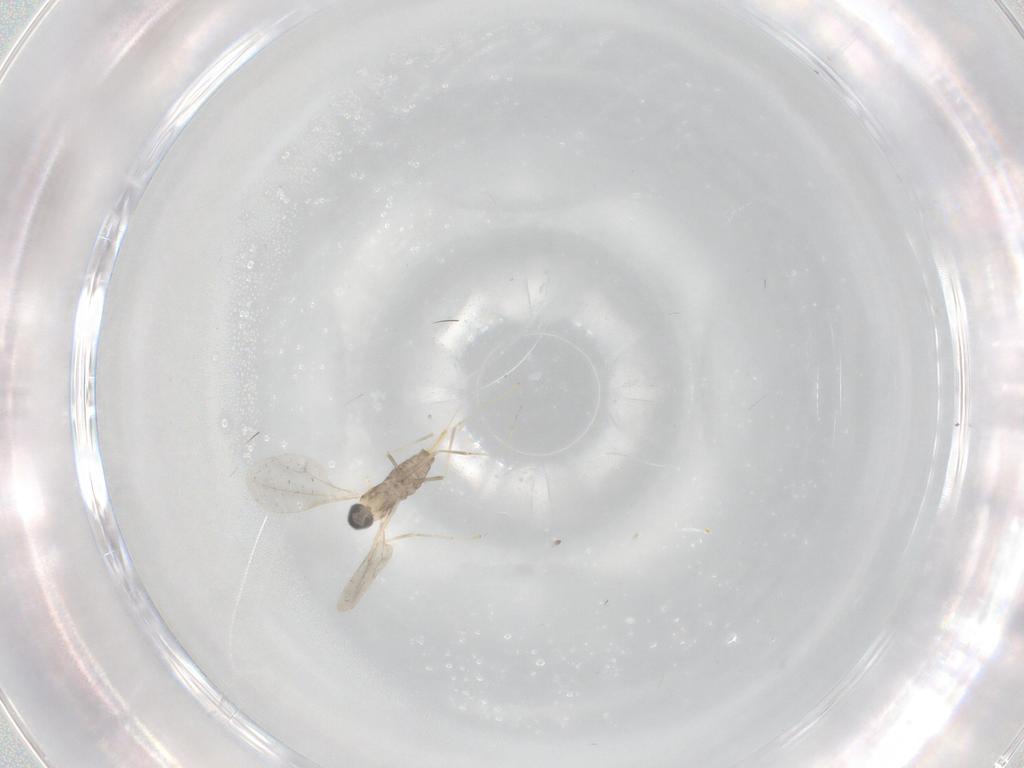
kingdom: Animalia
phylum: Arthropoda
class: Insecta
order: Diptera
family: Cecidomyiidae
